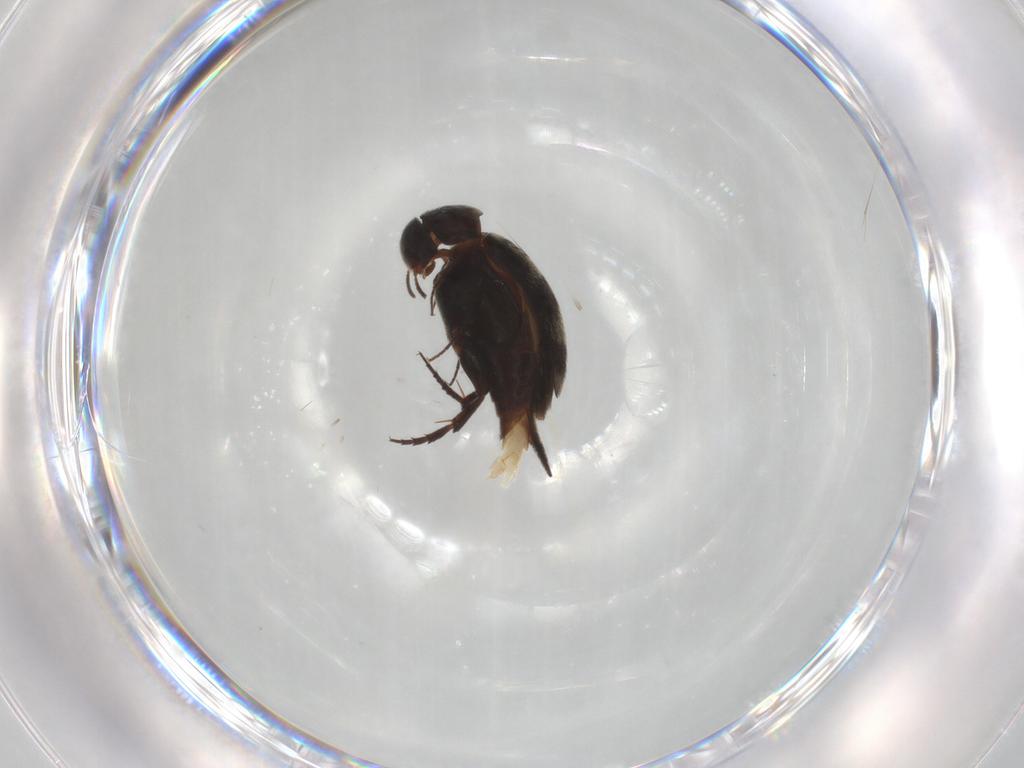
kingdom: Animalia
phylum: Arthropoda
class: Insecta
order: Coleoptera
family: Mordellidae
